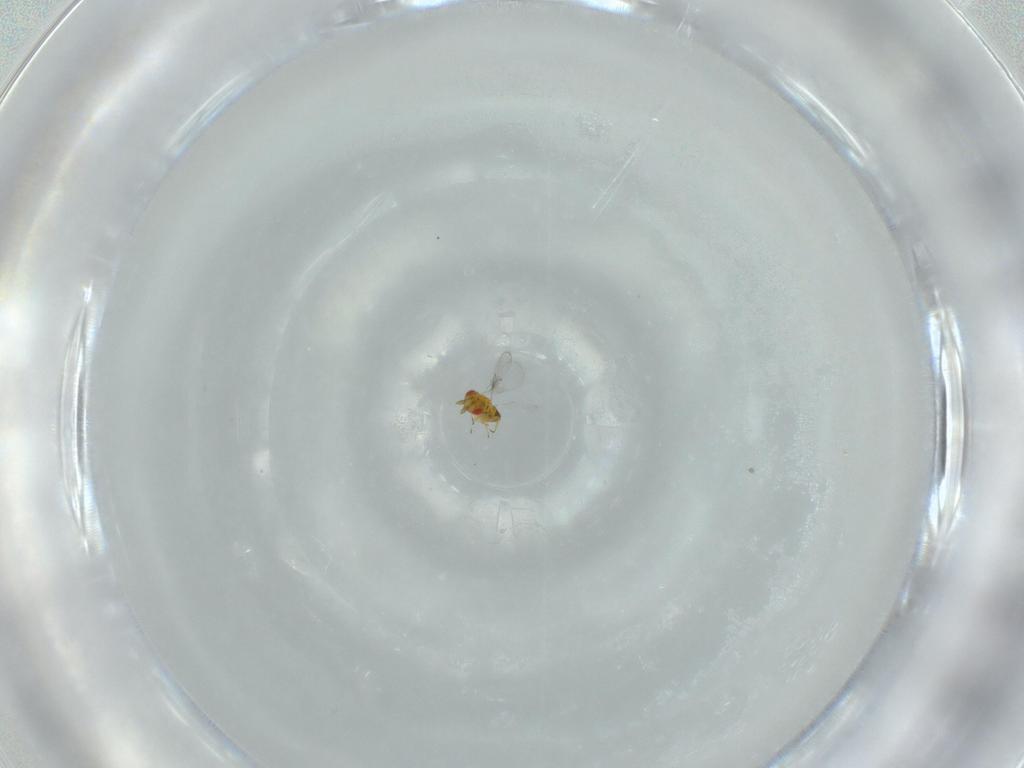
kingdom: Animalia
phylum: Arthropoda
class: Insecta
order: Hymenoptera
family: Trichogrammatidae
